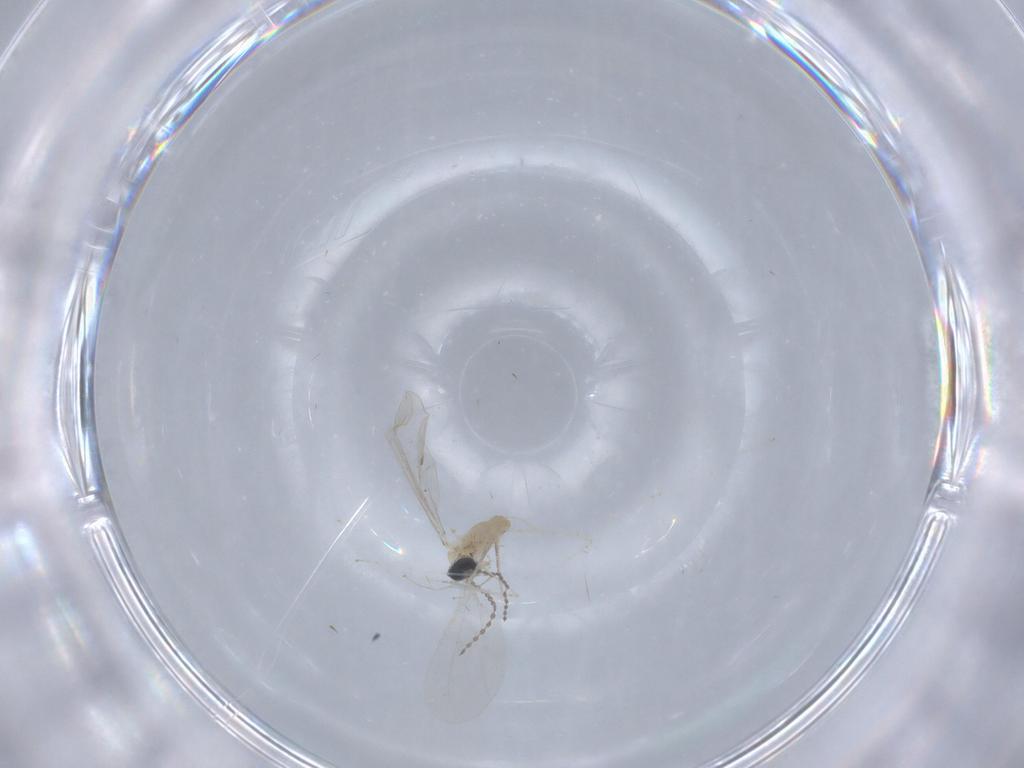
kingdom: Animalia
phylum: Arthropoda
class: Insecta
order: Diptera
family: Cecidomyiidae
